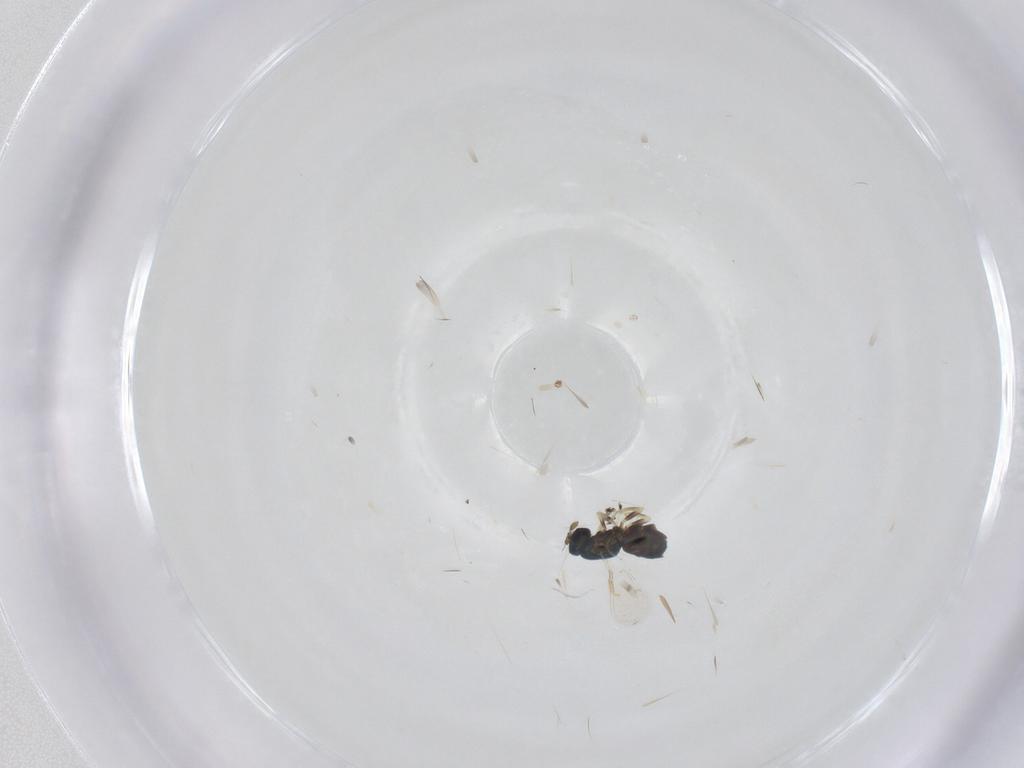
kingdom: Animalia
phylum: Arthropoda
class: Insecta
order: Hymenoptera
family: Eulophidae
